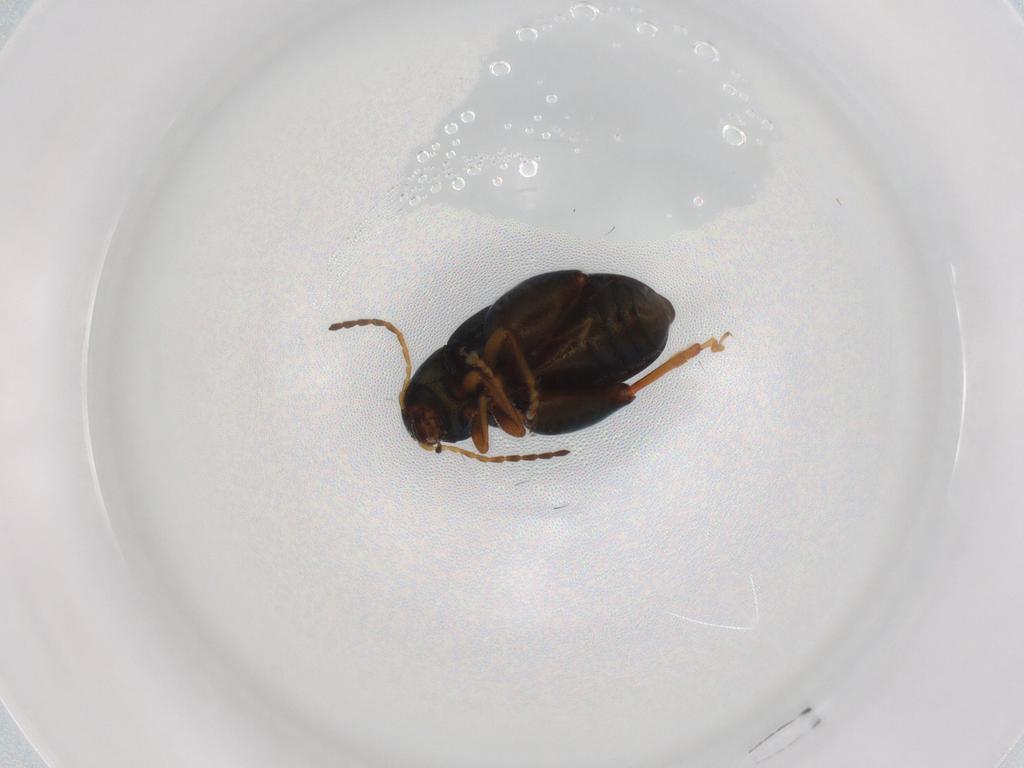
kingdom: Animalia
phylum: Arthropoda
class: Insecta
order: Coleoptera
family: Chrysomelidae
